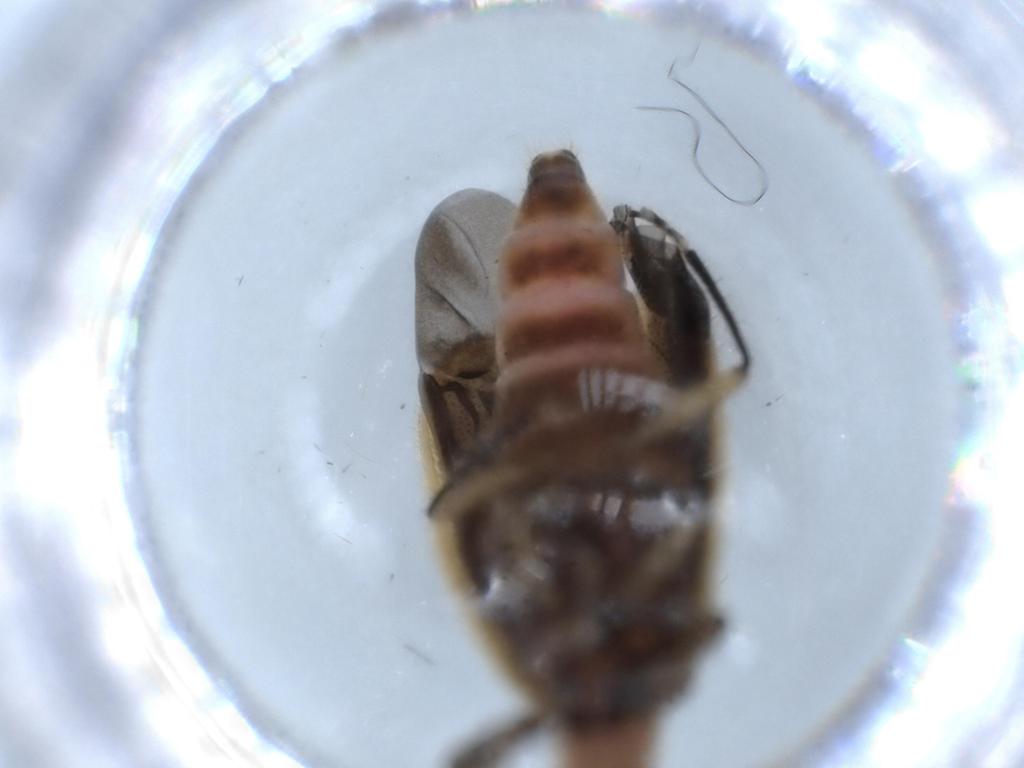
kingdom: Animalia
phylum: Arthropoda
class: Insecta
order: Coleoptera
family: Cleridae
